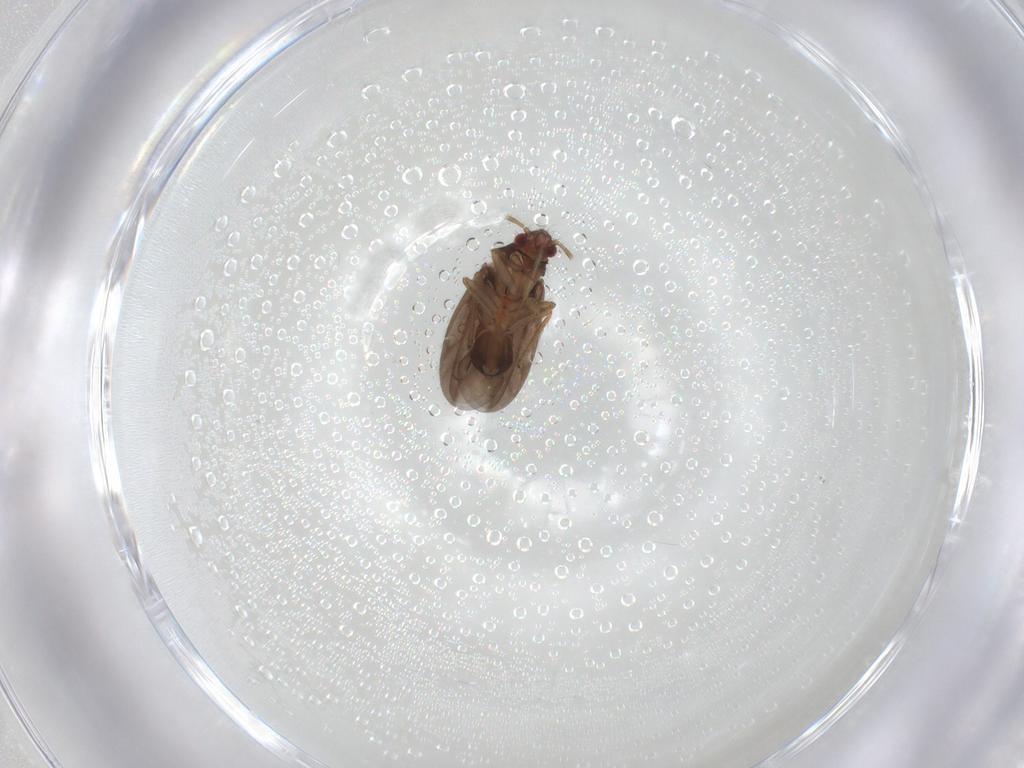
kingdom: Animalia
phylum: Arthropoda
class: Insecta
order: Hemiptera
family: Ceratocombidae
